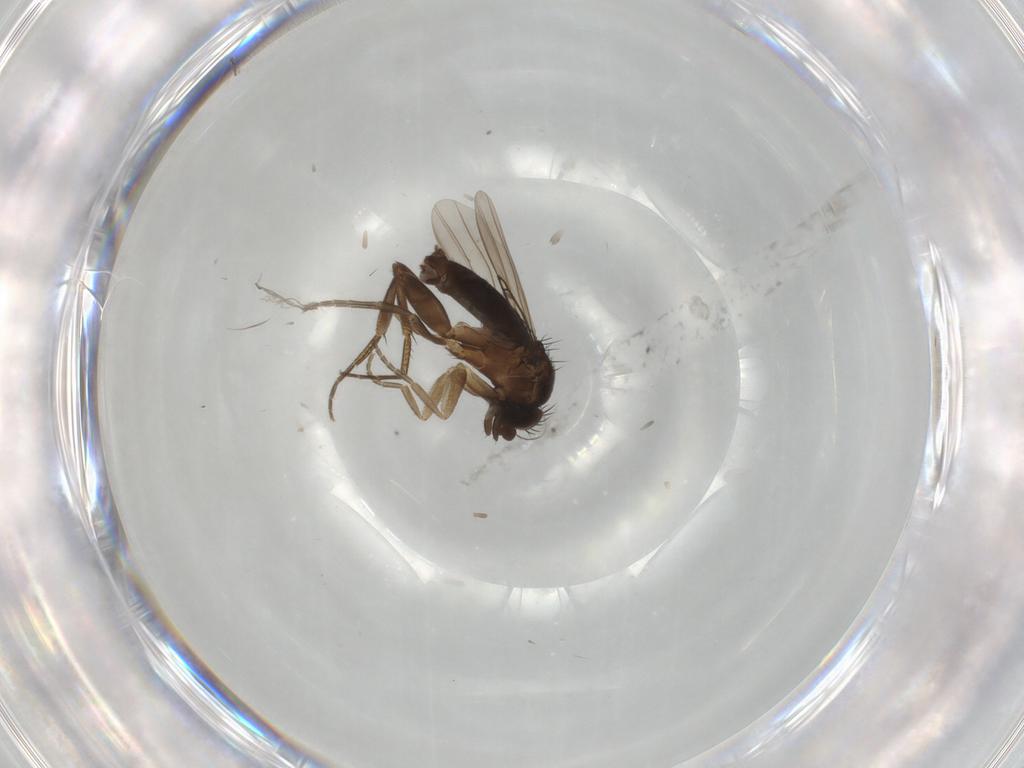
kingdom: Animalia
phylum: Arthropoda
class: Insecta
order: Diptera
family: Phoridae
